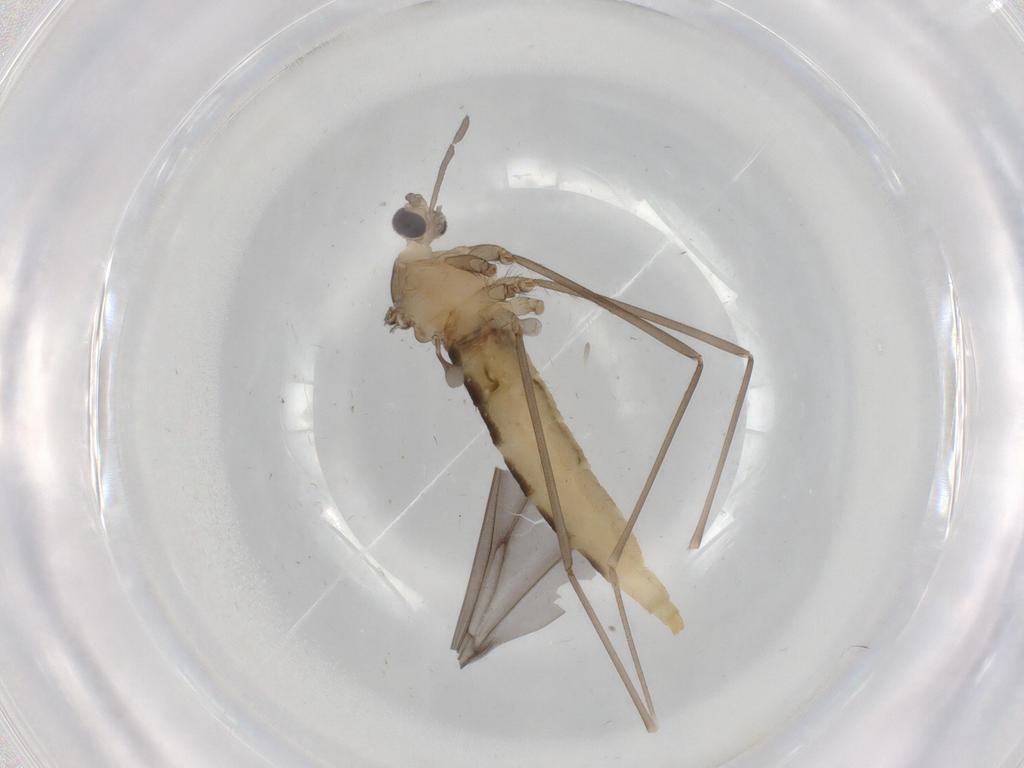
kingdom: Animalia
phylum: Arthropoda
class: Insecta
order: Diptera
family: Cecidomyiidae
